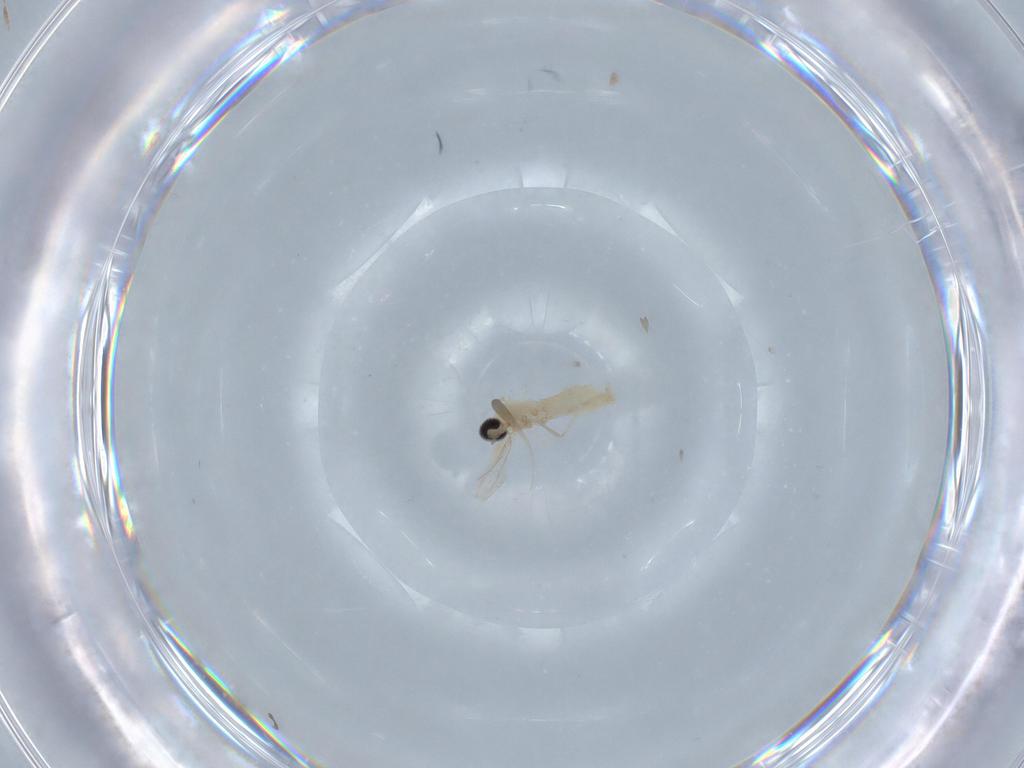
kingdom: Animalia
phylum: Arthropoda
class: Insecta
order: Diptera
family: Cecidomyiidae
